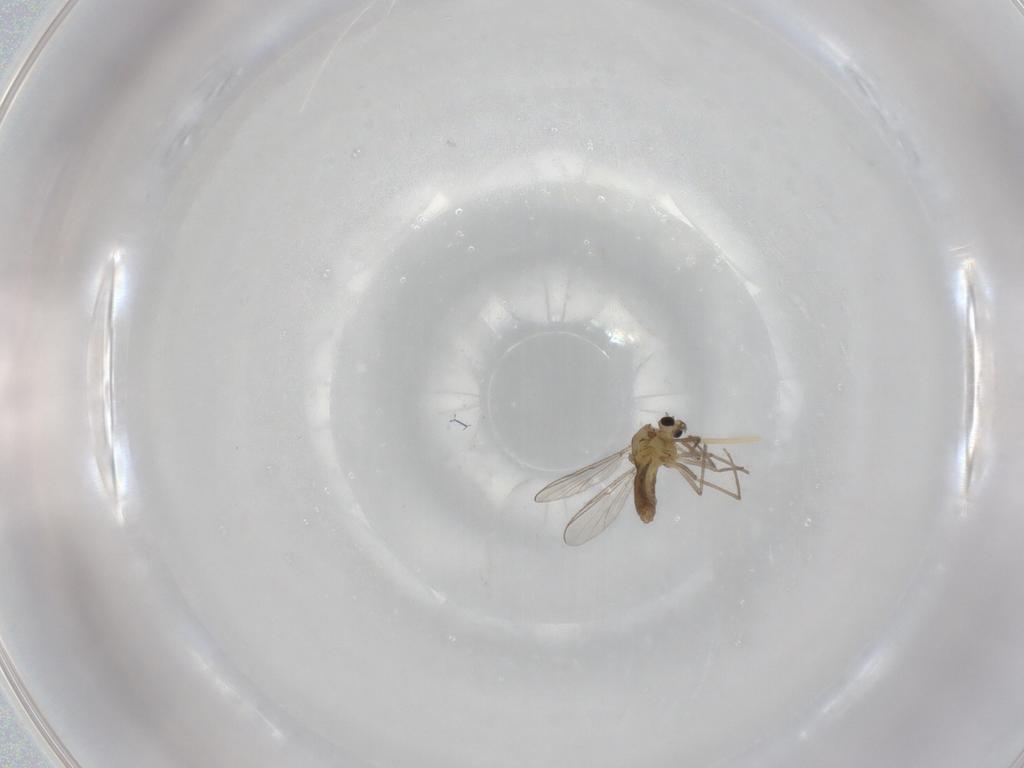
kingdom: Animalia
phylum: Arthropoda
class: Insecta
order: Diptera
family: Chironomidae
